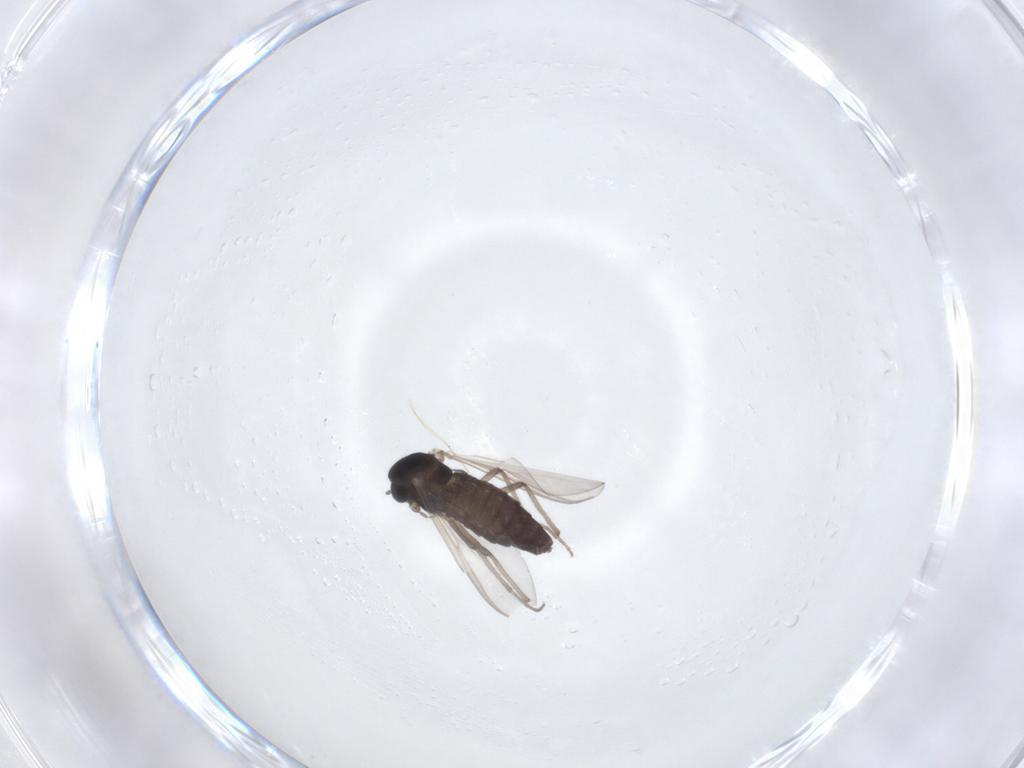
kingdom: Animalia
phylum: Arthropoda
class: Insecta
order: Diptera
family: Chironomidae
